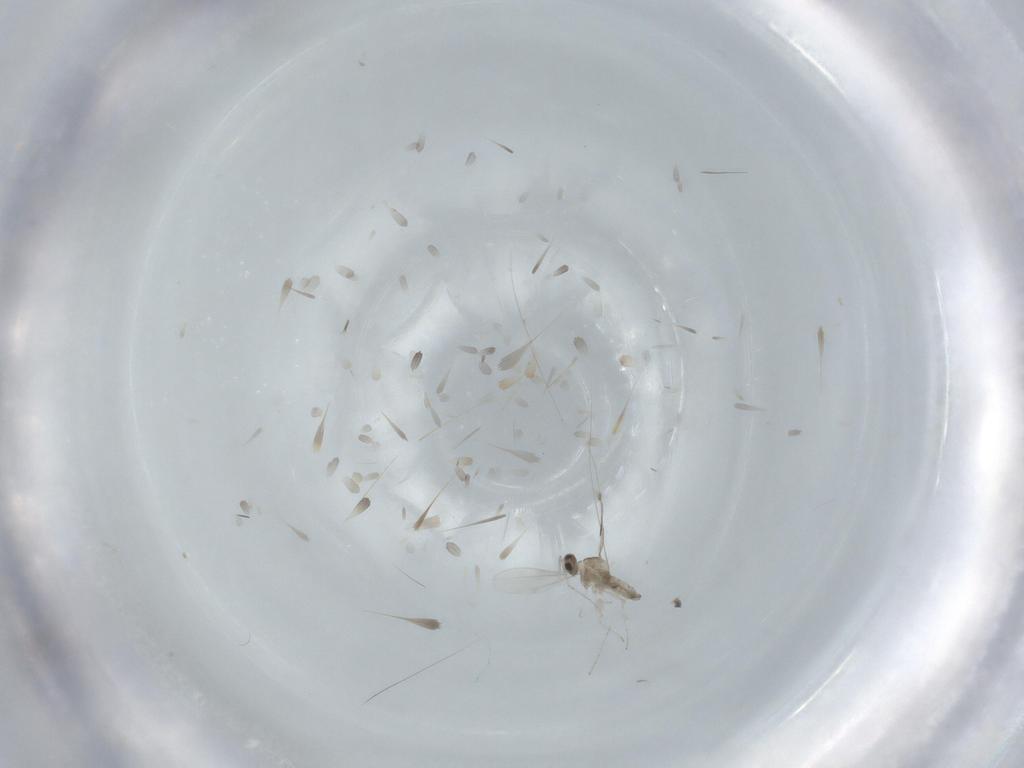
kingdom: Animalia
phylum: Arthropoda
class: Insecta
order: Diptera
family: Cecidomyiidae
